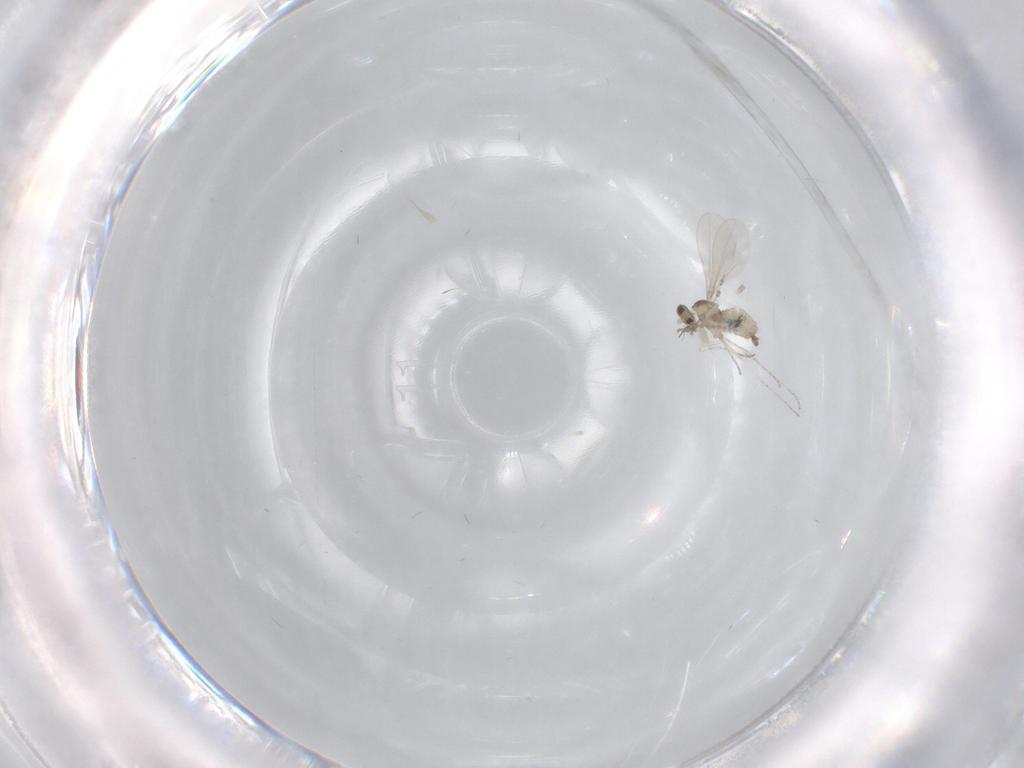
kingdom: Animalia
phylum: Arthropoda
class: Insecta
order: Diptera
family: Cecidomyiidae
